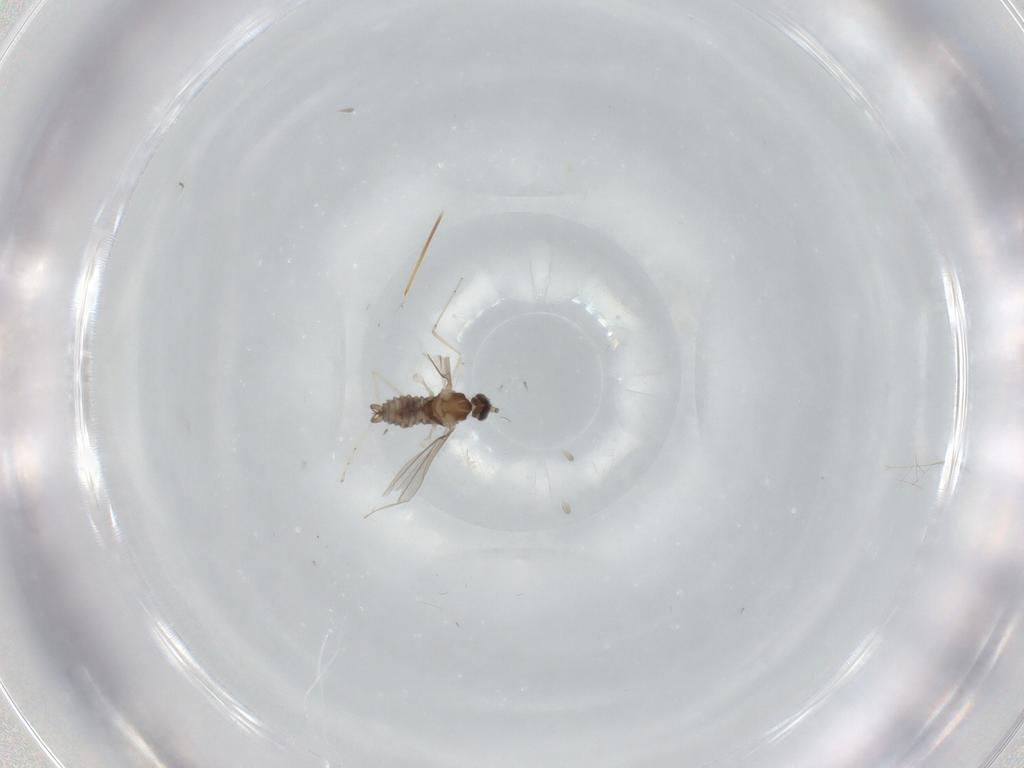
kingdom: Animalia
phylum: Arthropoda
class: Insecta
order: Diptera
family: Cecidomyiidae
